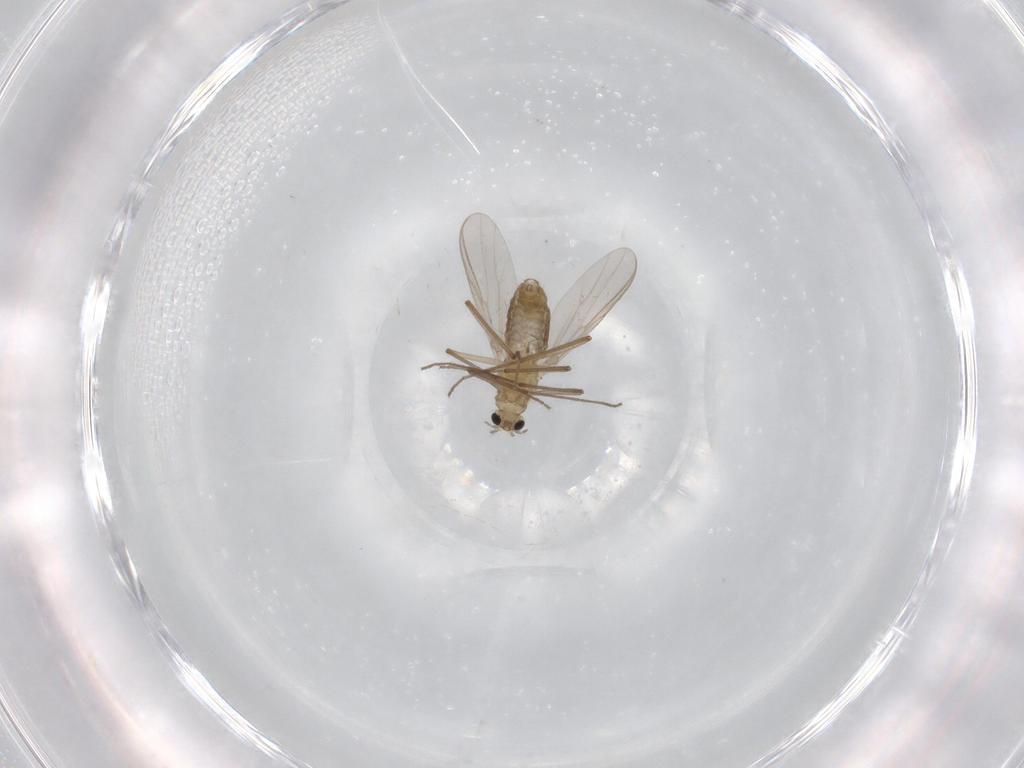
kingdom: Animalia
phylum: Arthropoda
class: Insecta
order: Diptera
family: Chironomidae
